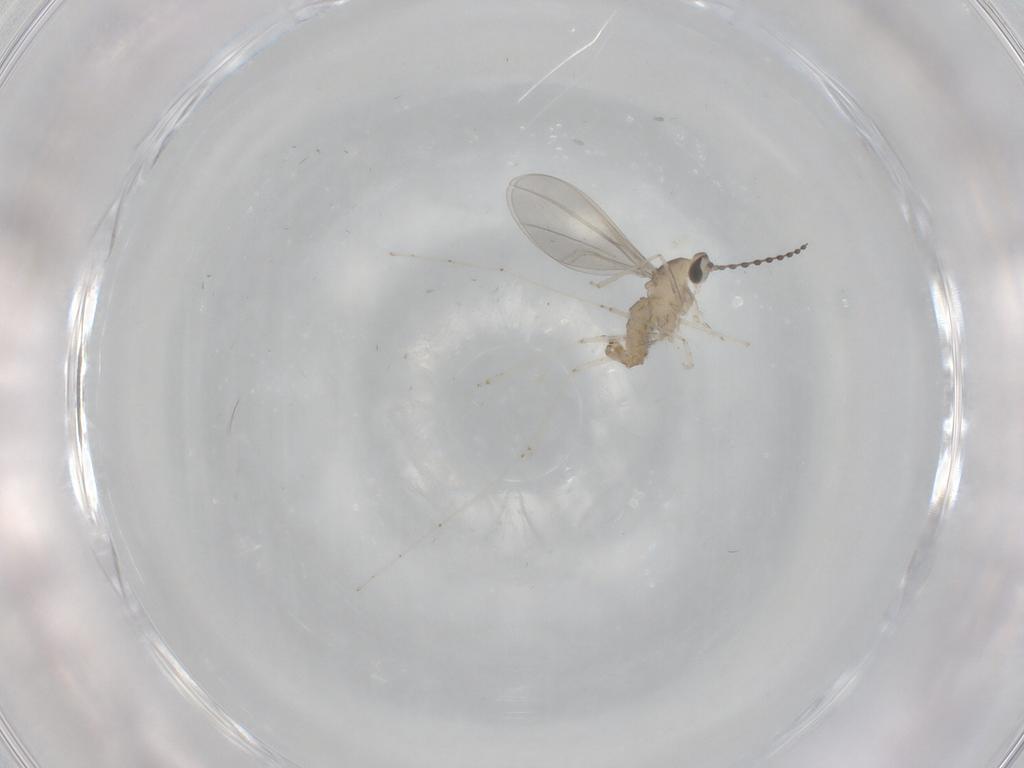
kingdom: Animalia
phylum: Arthropoda
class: Insecta
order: Diptera
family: Cecidomyiidae
